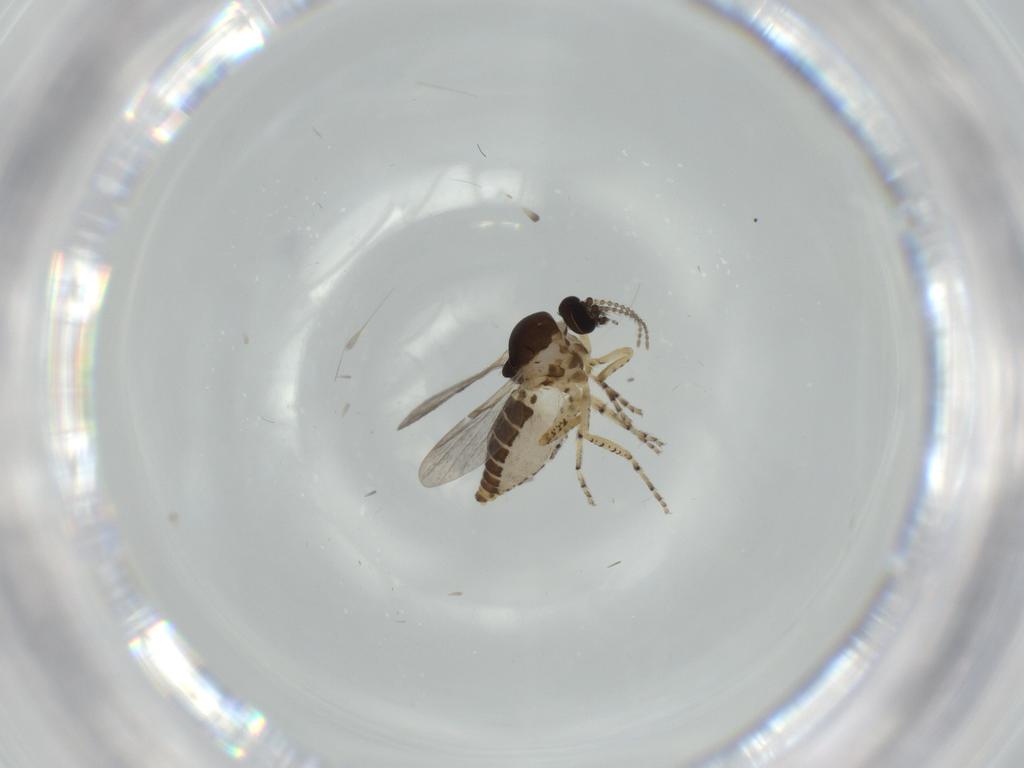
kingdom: Animalia
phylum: Arthropoda
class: Insecta
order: Diptera
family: Ceratopogonidae
